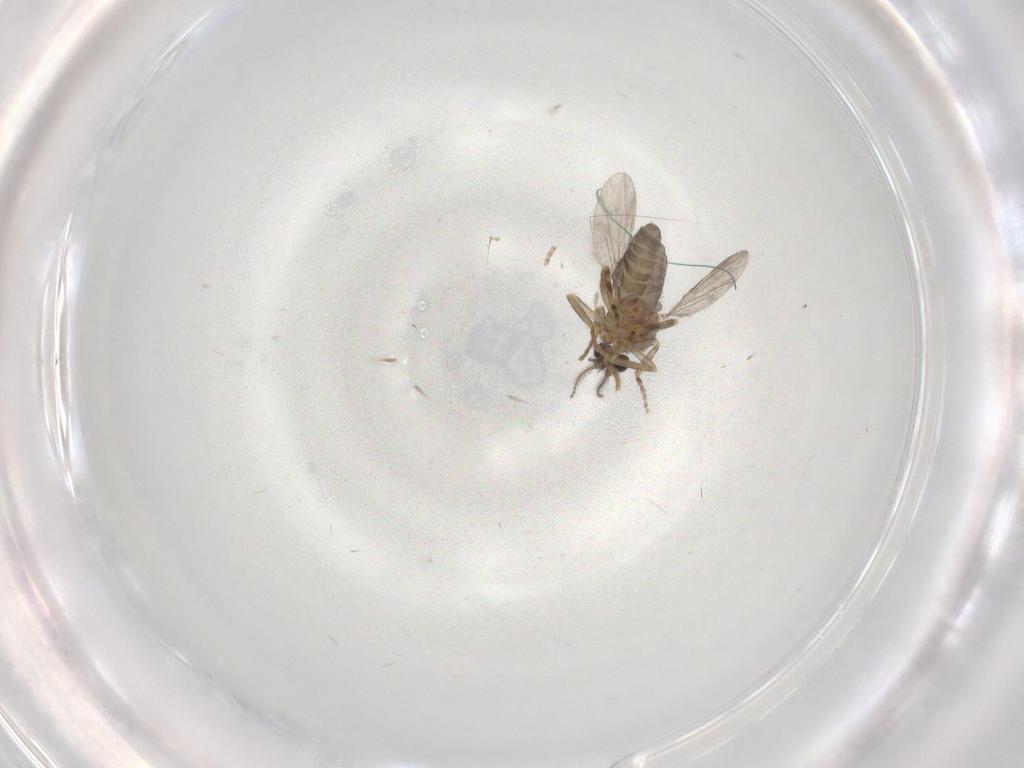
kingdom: Animalia
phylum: Arthropoda
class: Insecta
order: Diptera
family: Ceratopogonidae
